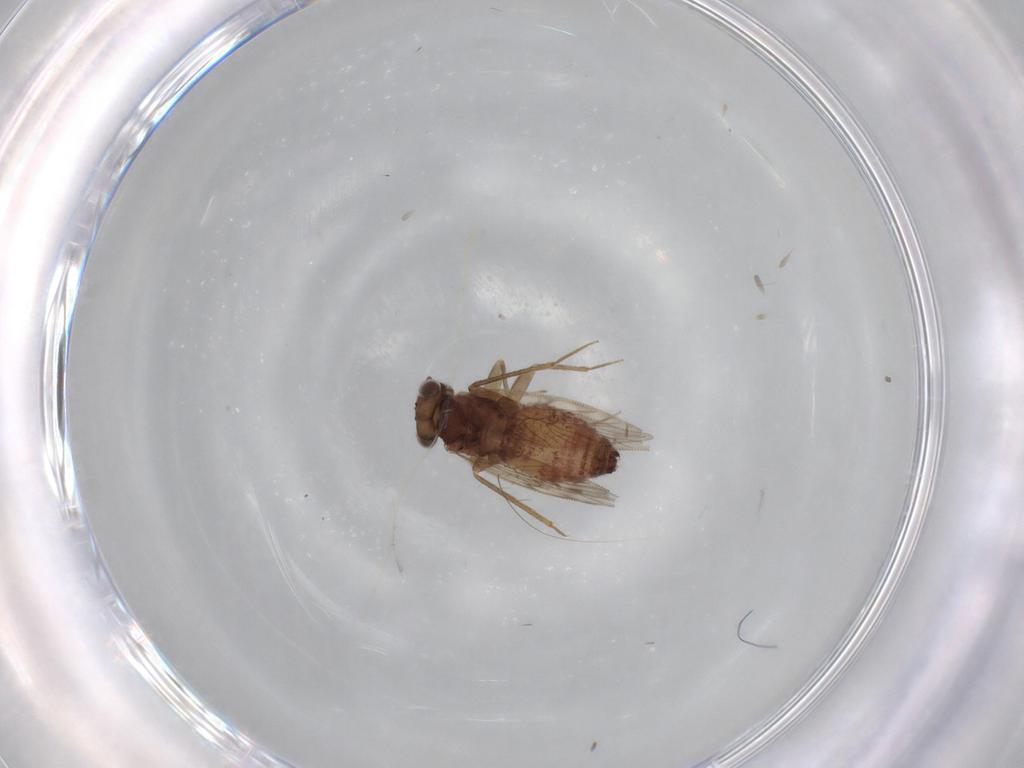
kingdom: Animalia
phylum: Arthropoda
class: Insecta
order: Psocodea
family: Lepidopsocidae
